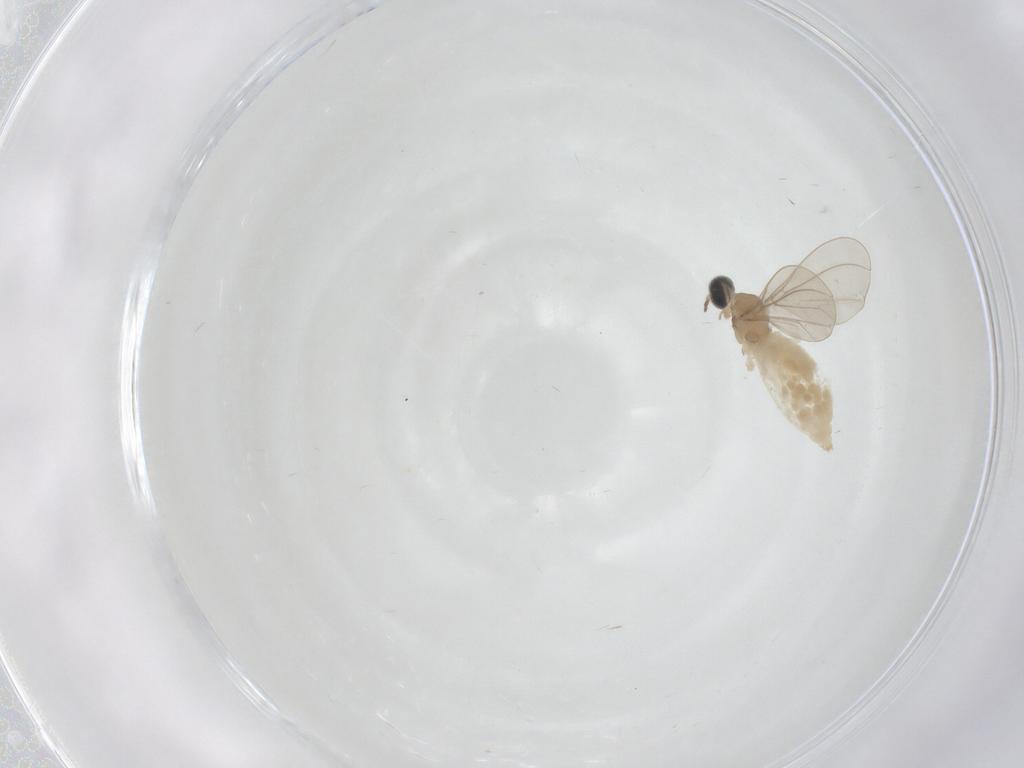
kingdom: Animalia
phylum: Arthropoda
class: Insecta
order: Diptera
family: Cecidomyiidae
